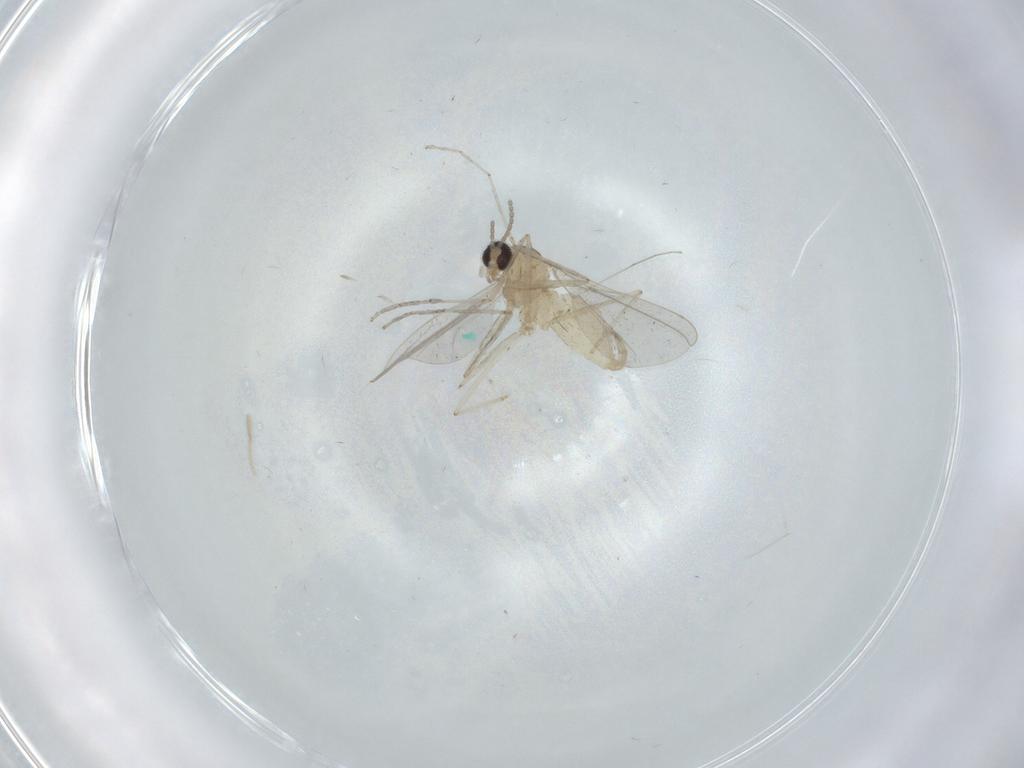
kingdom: Animalia
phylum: Arthropoda
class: Insecta
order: Diptera
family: Cecidomyiidae
